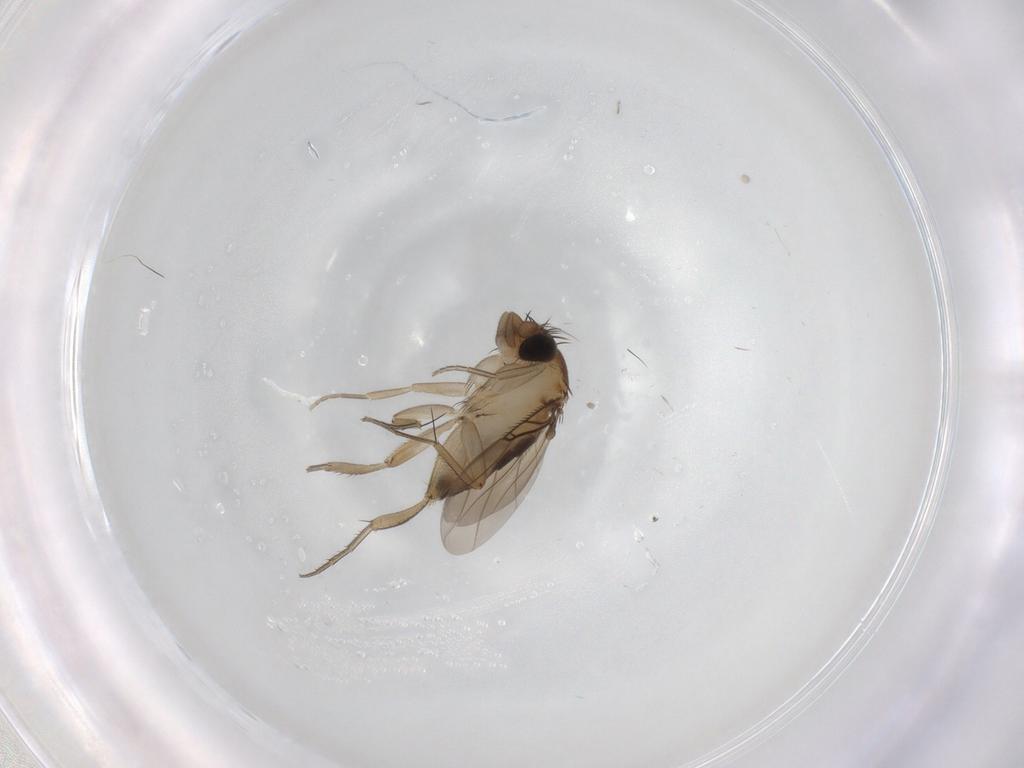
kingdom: Animalia
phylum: Arthropoda
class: Insecta
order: Diptera
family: Phoridae
